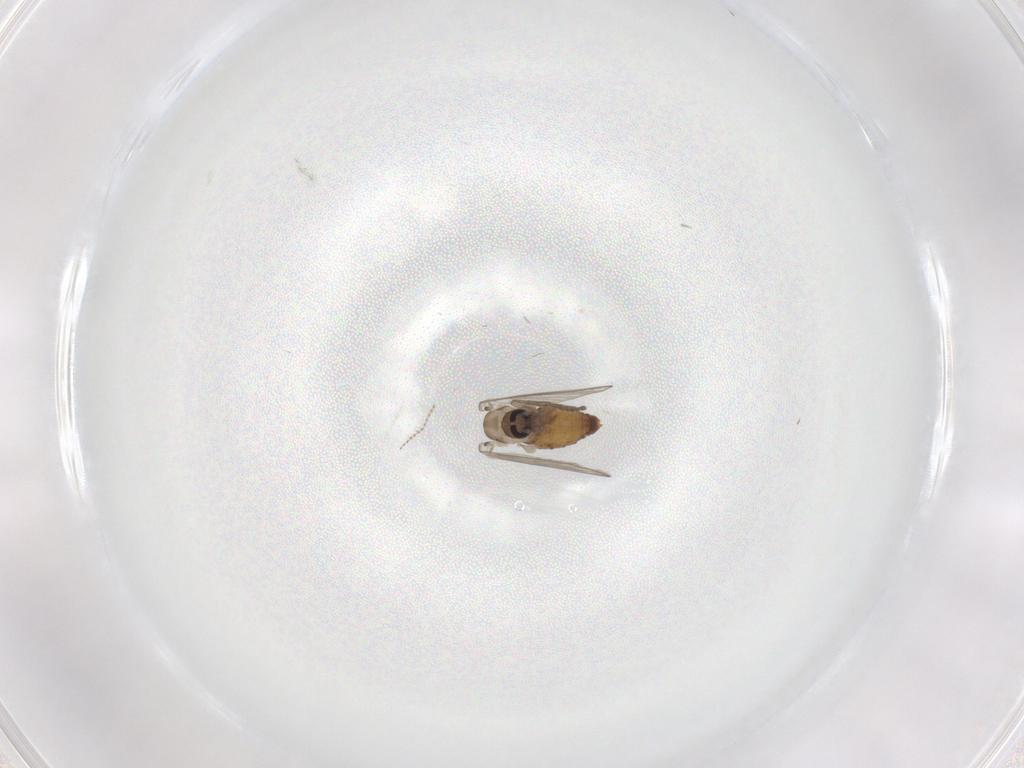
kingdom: Animalia
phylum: Arthropoda
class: Insecta
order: Diptera
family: Psychodidae
